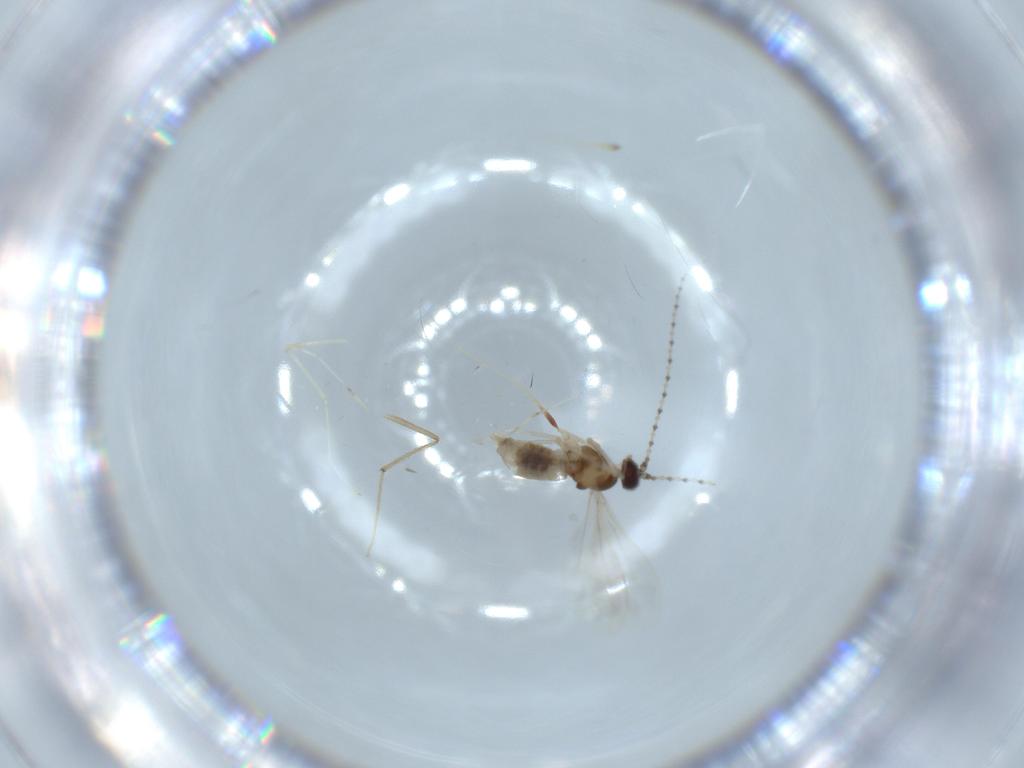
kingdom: Animalia
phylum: Arthropoda
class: Insecta
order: Diptera
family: Cecidomyiidae
